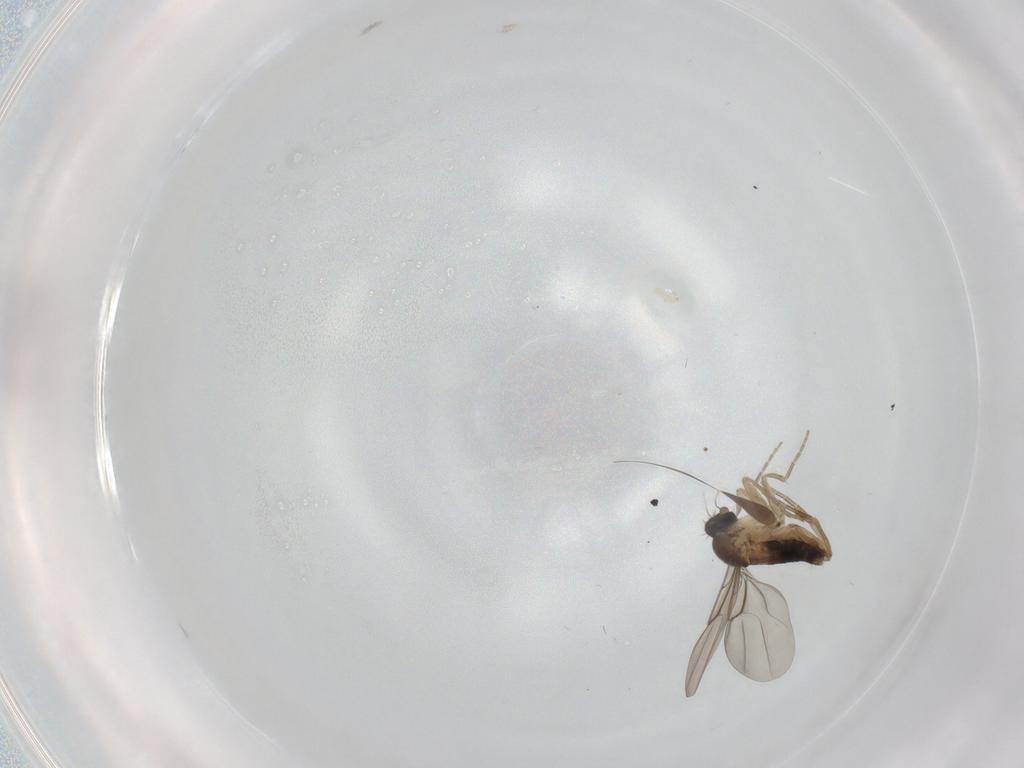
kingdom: Animalia
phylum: Arthropoda
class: Insecta
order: Diptera
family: Phoridae
